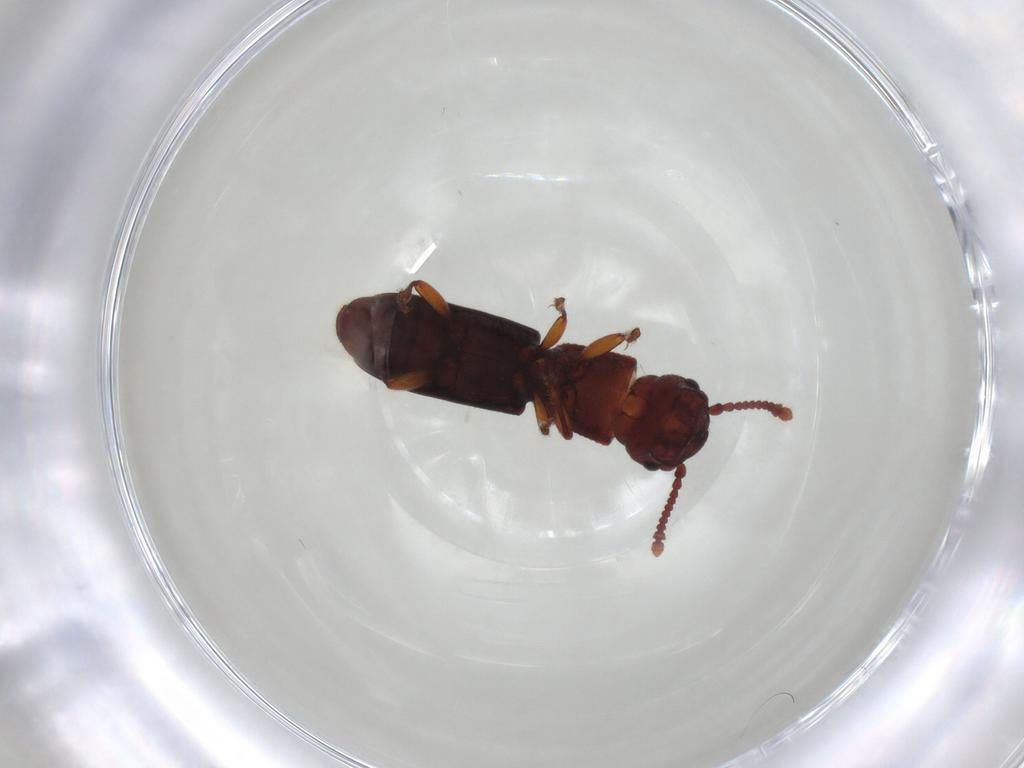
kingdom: Animalia
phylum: Arthropoda
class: Insecta
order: Coleoptera
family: Monotomidae
